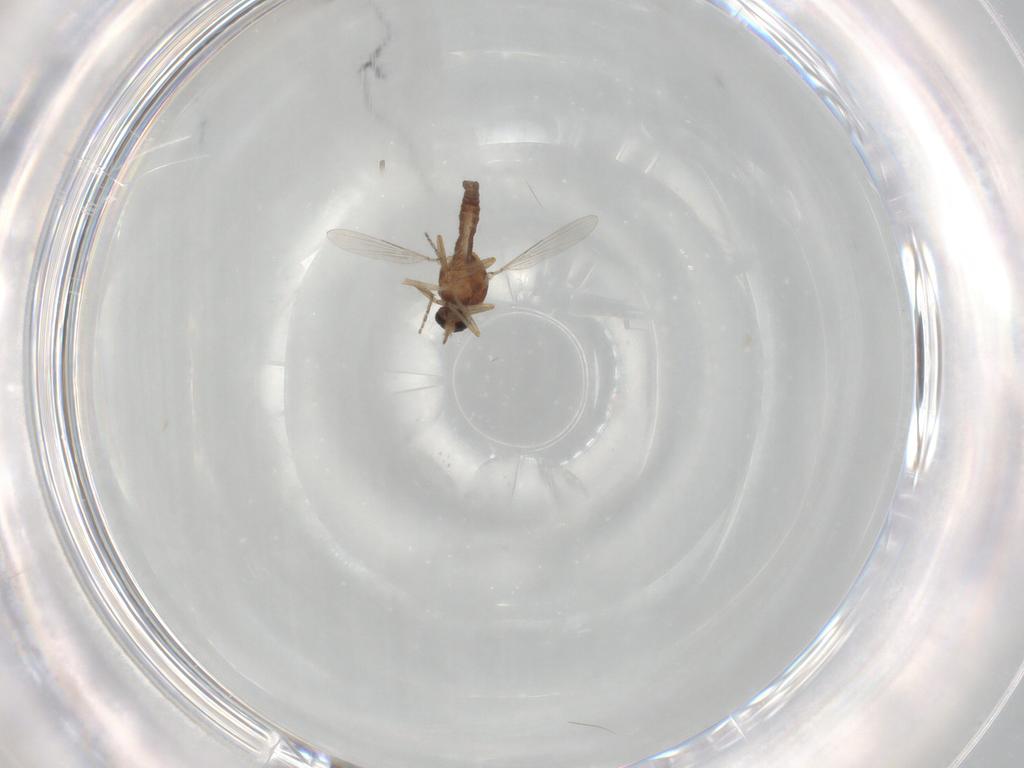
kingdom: Animalia
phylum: Arthropoda
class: Insecta
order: Diptera
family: Ceratopogonidae
